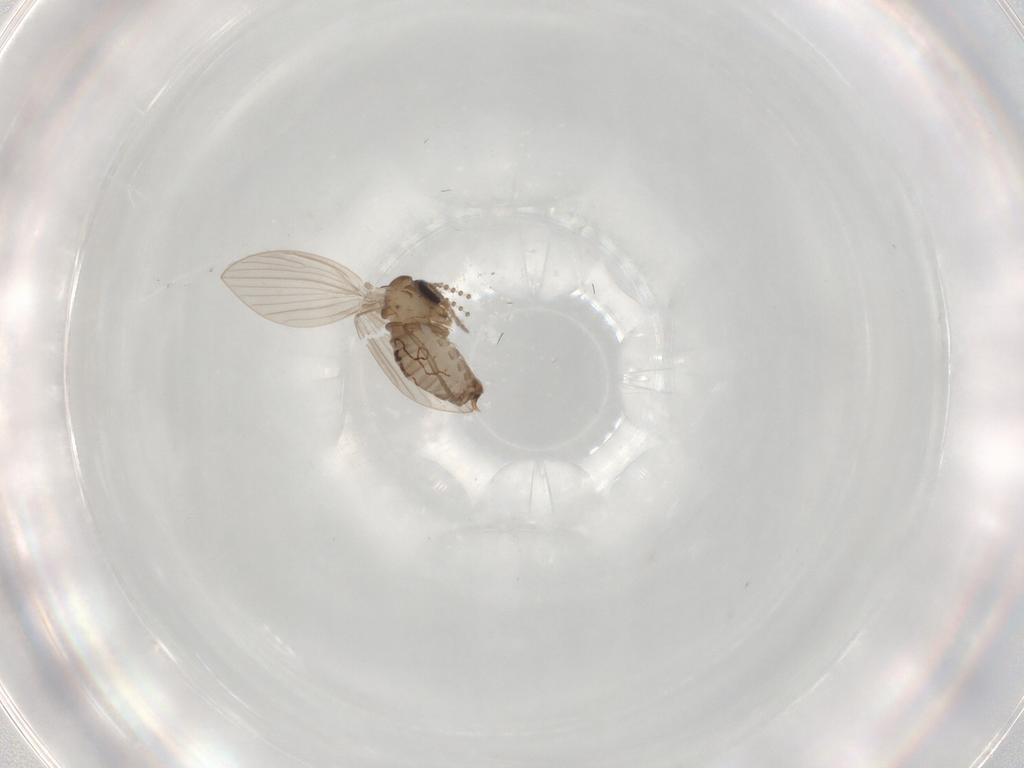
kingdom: Animalia
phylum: Arthropoda
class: Insecta
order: Diptera
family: Psychodidae
